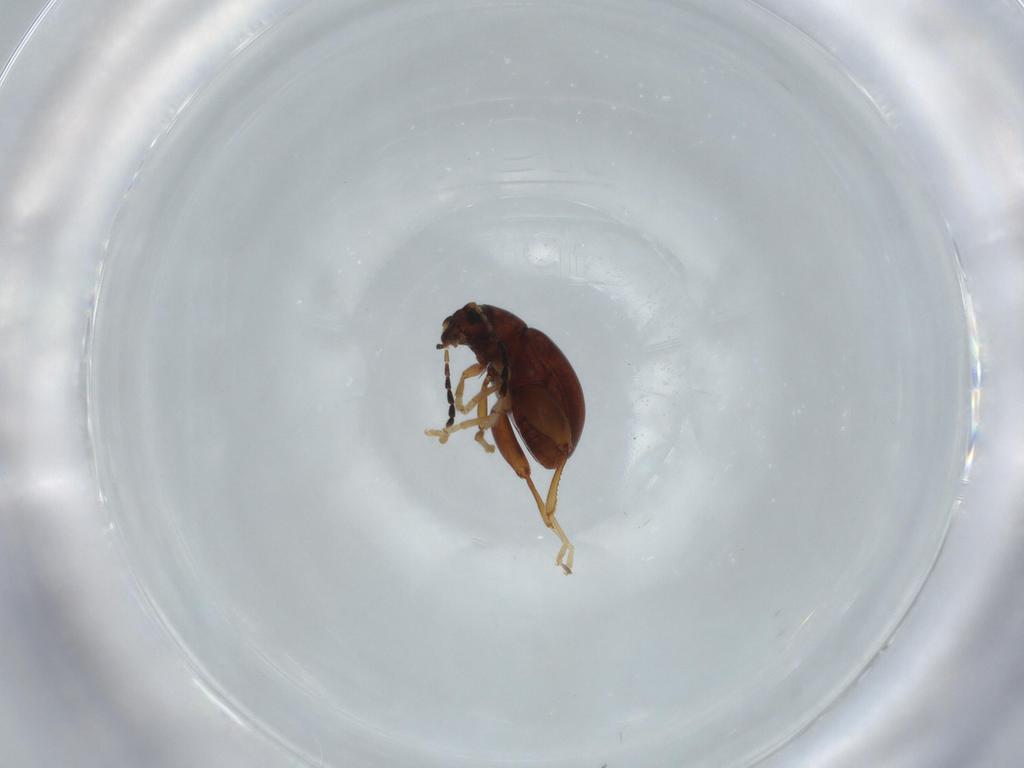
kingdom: Animalia
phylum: Arthropoda
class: Insecta
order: Coleoptera
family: Chrysomelidae
